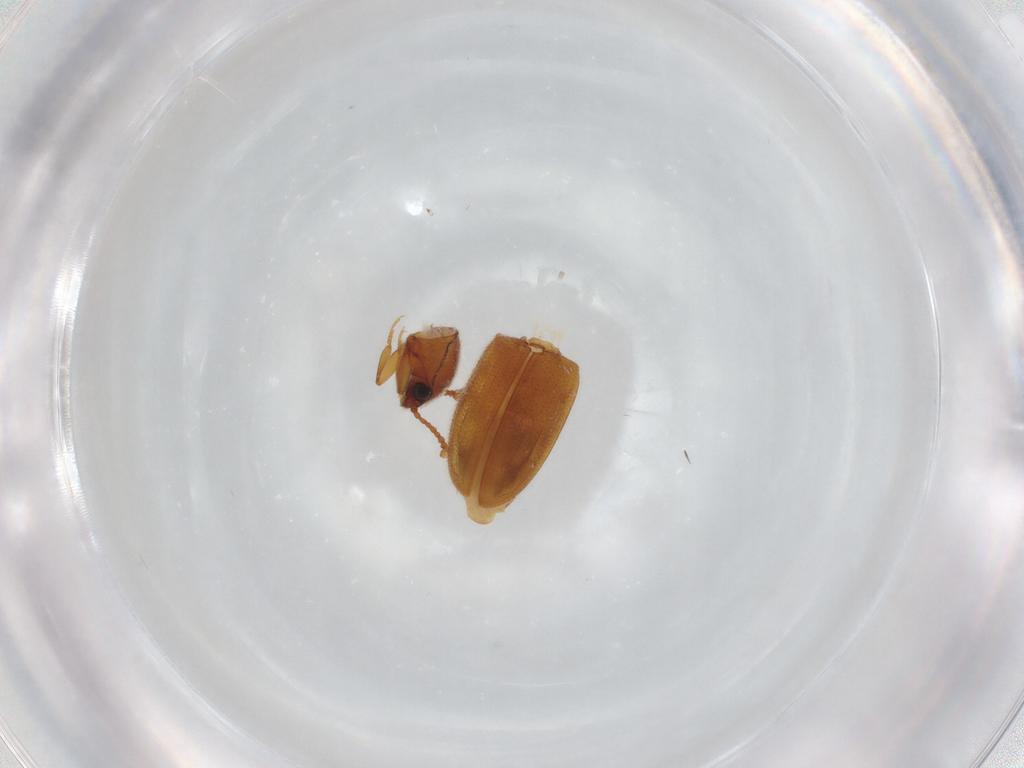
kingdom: Animalia
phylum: Arthropoda
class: Insecta
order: Coleoptera
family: Erotylidae
